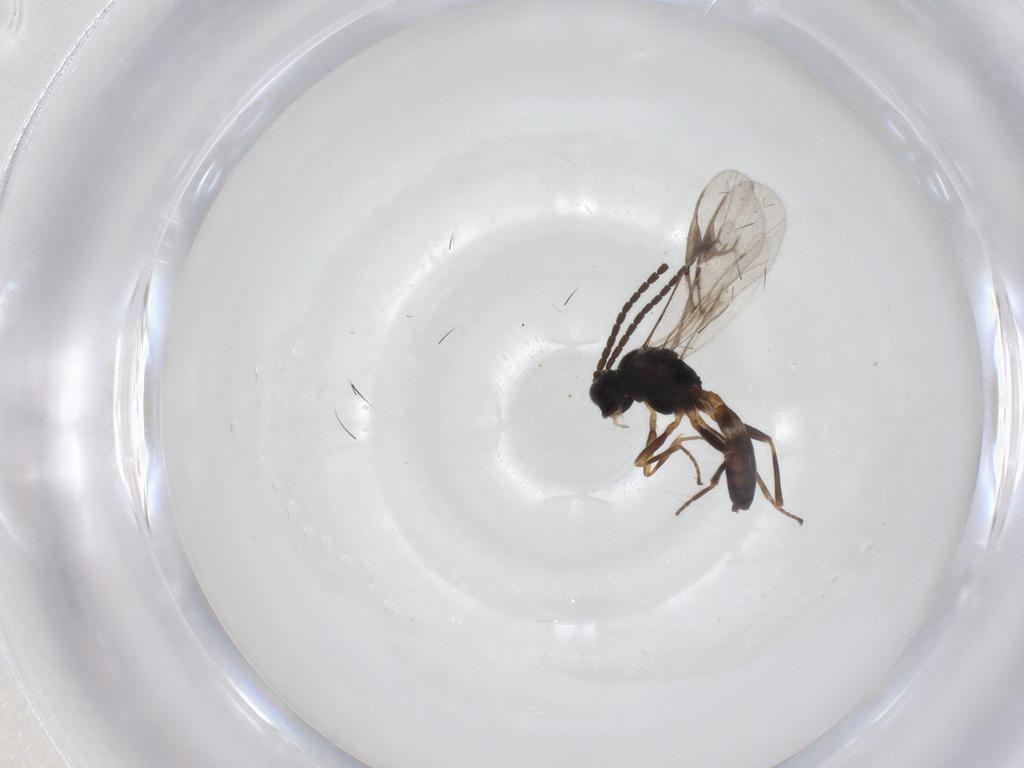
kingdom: Animalia
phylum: Arthropoda
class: Insecta
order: Hymenoptera
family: Braconidae
